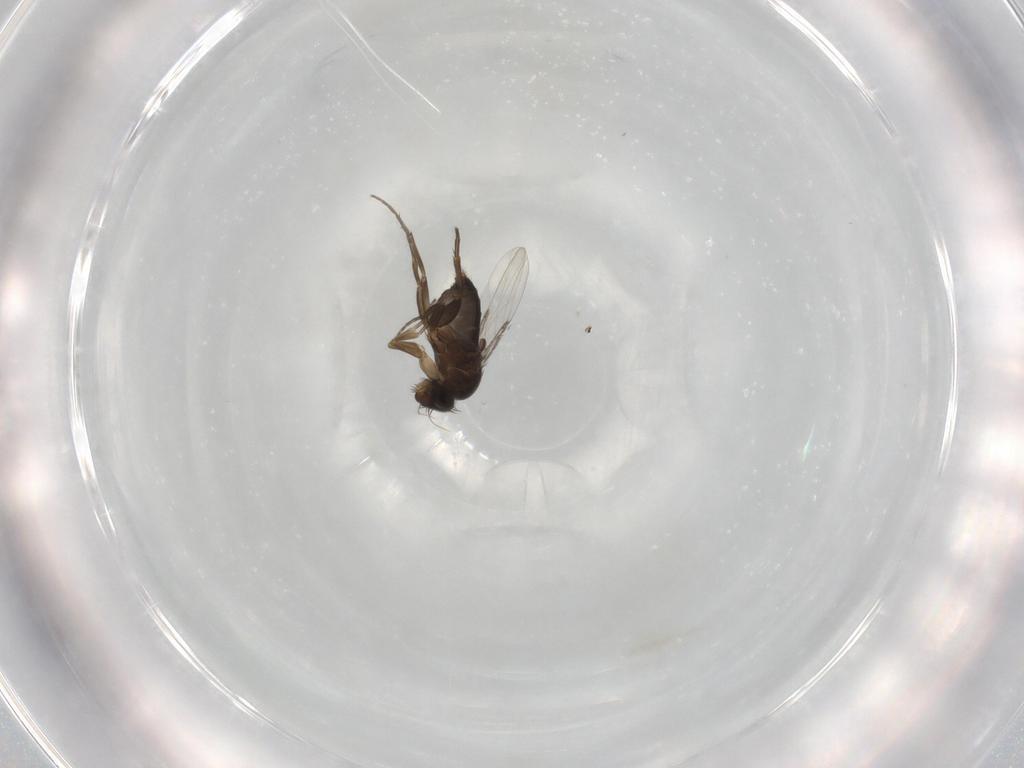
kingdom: Animalia
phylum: Arthropoda
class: Insecta
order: Diptera
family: Phoridae
